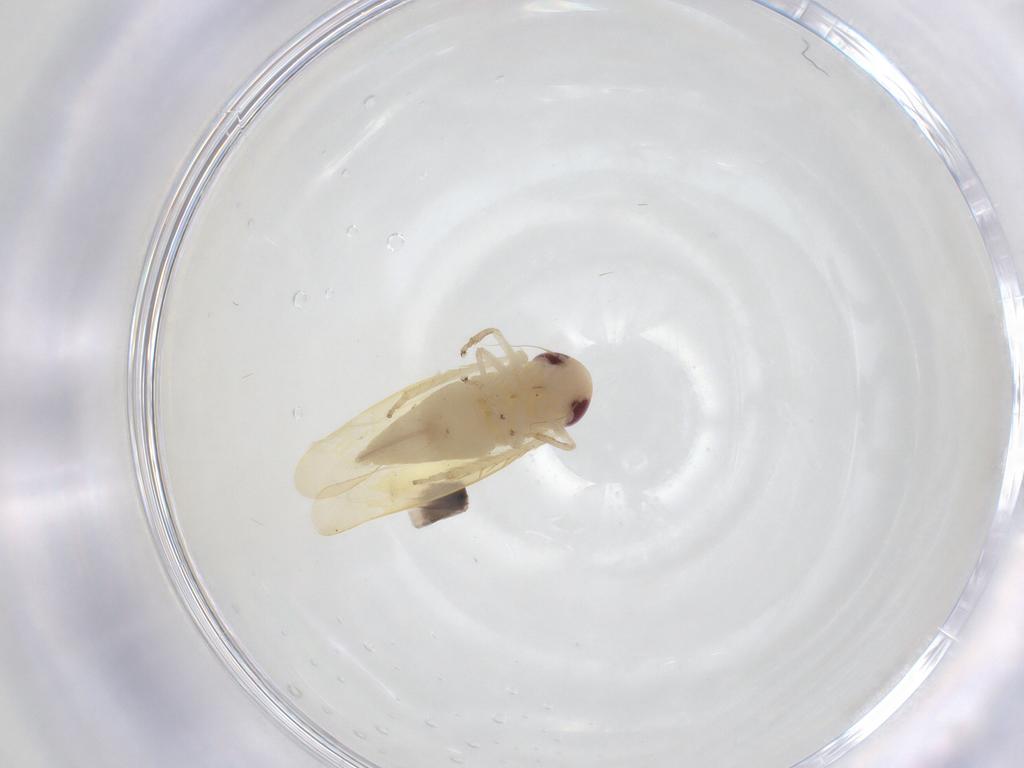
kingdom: Animalia
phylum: Arthropoda
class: Insecta
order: Hemiptera
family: Cicadellidae
